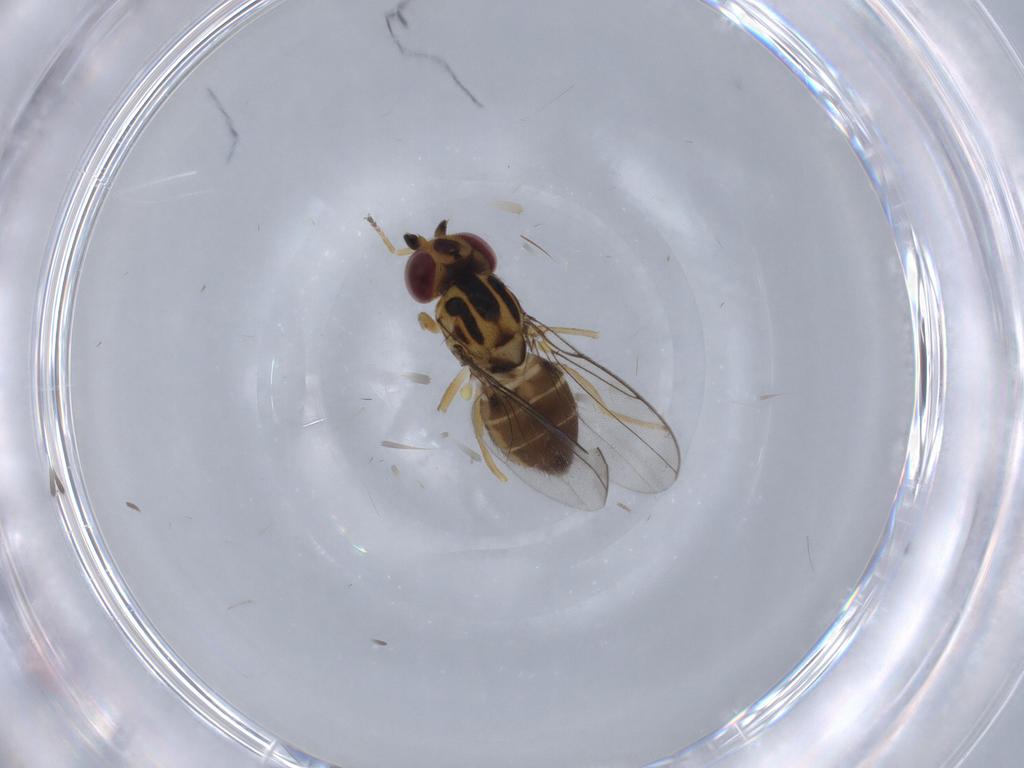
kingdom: Animalia
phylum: Arthropoda
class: Insecta
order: Diptera
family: Chloropidae
